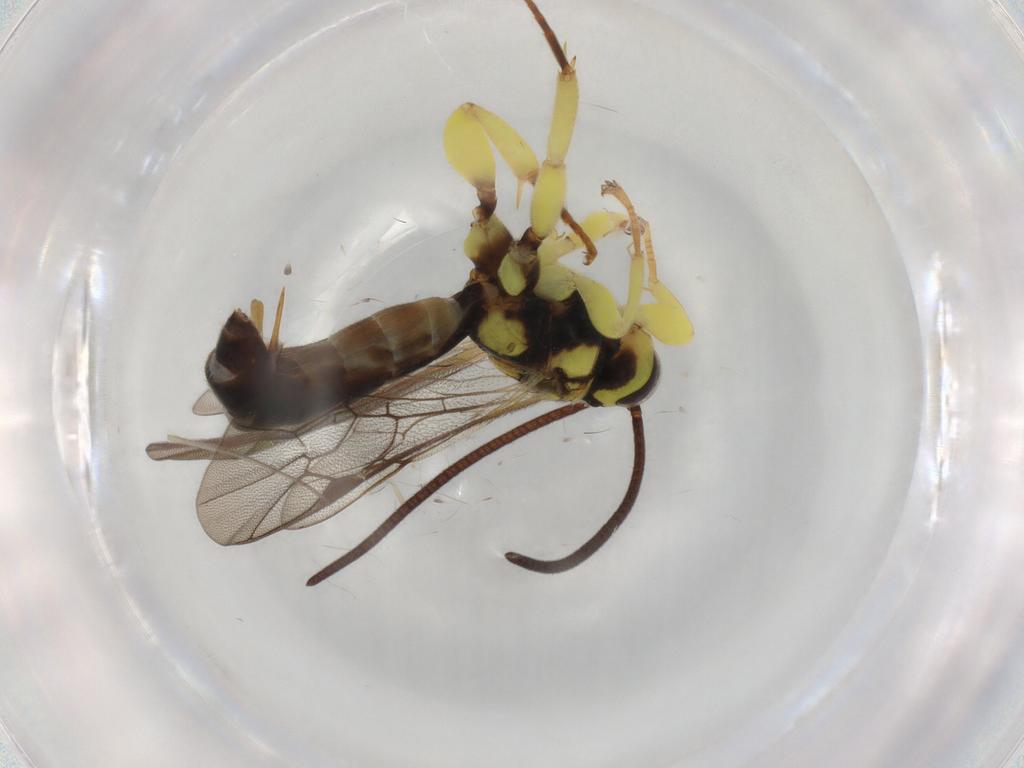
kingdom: Animalia
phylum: Arthropoda
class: Insecta
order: Hymenoptera
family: Ichneumonidae
